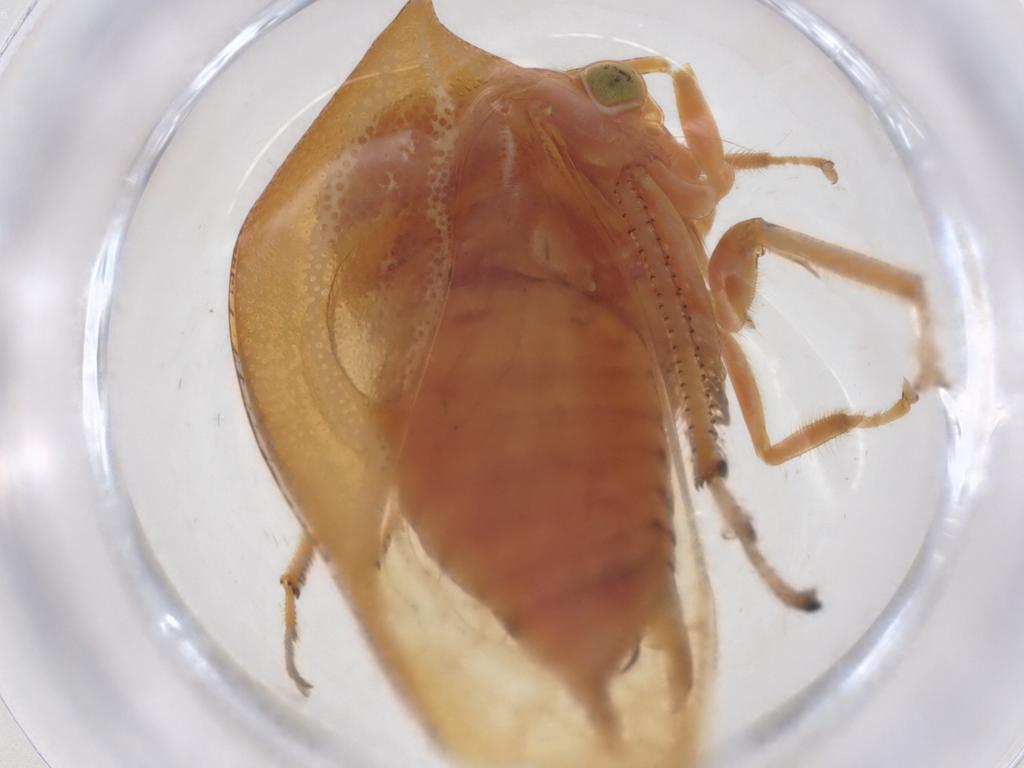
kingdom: Animalia
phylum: Arthropoda
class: Insecta
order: Hemiptera
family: Membracidae
